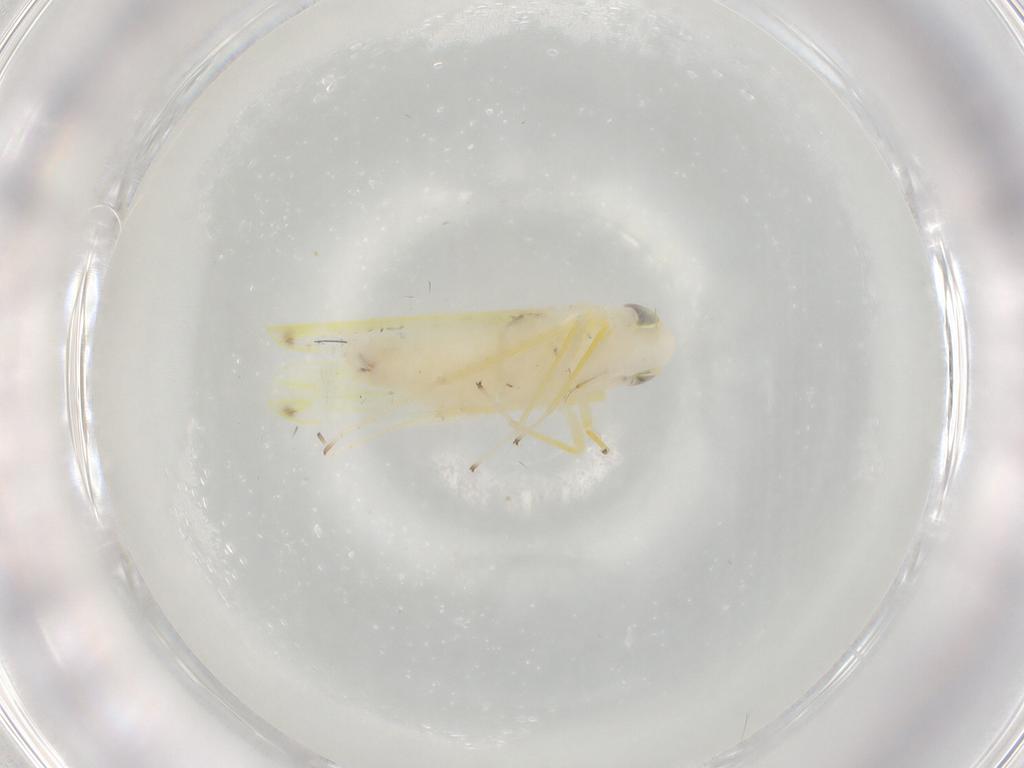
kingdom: Animalia
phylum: Arthropoda
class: Insecta
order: Hemiptera
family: Cicadellidae
